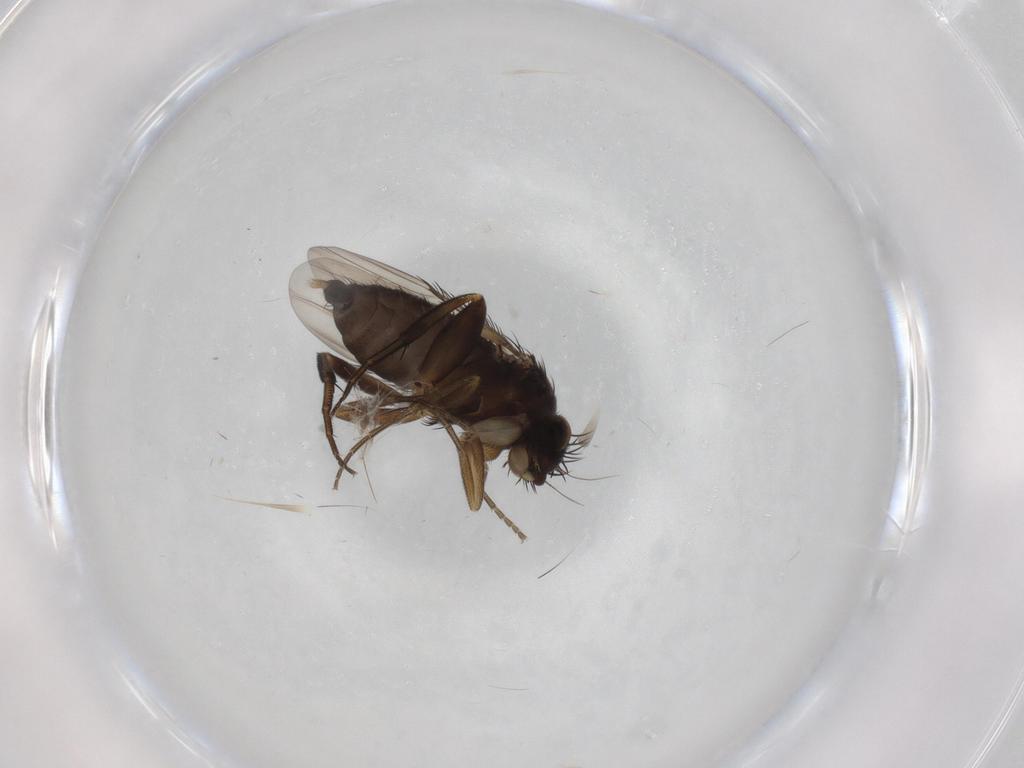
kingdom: Animalia
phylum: Arthropoda
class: Insecta
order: Diptera
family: Phoridae
